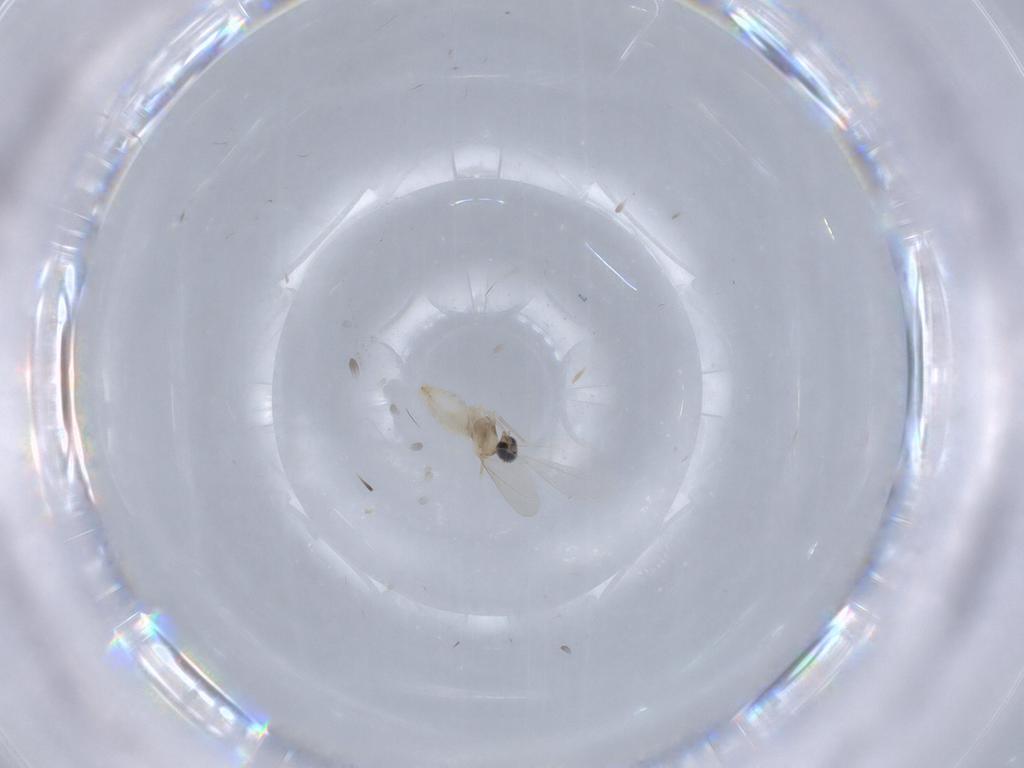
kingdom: Animalia
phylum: Arthropoda
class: Insecta
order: Diptera
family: Cecidomyiidae
